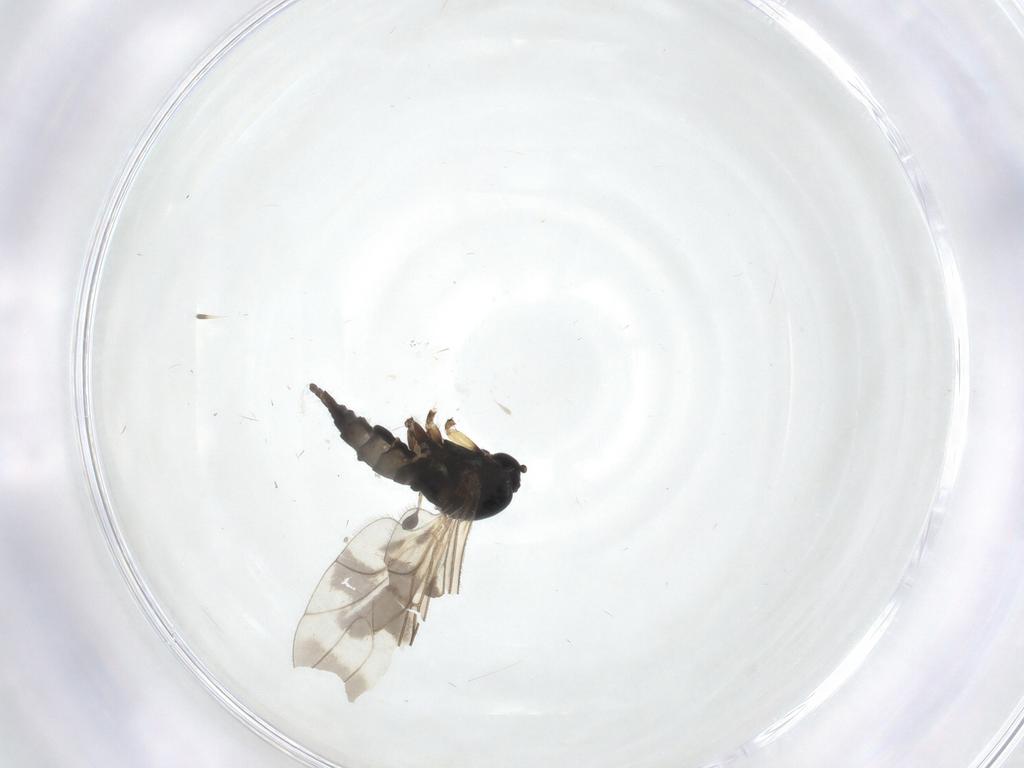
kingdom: Animalia
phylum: Arthropoda
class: Insecta
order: Diptera
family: Sciaridae
